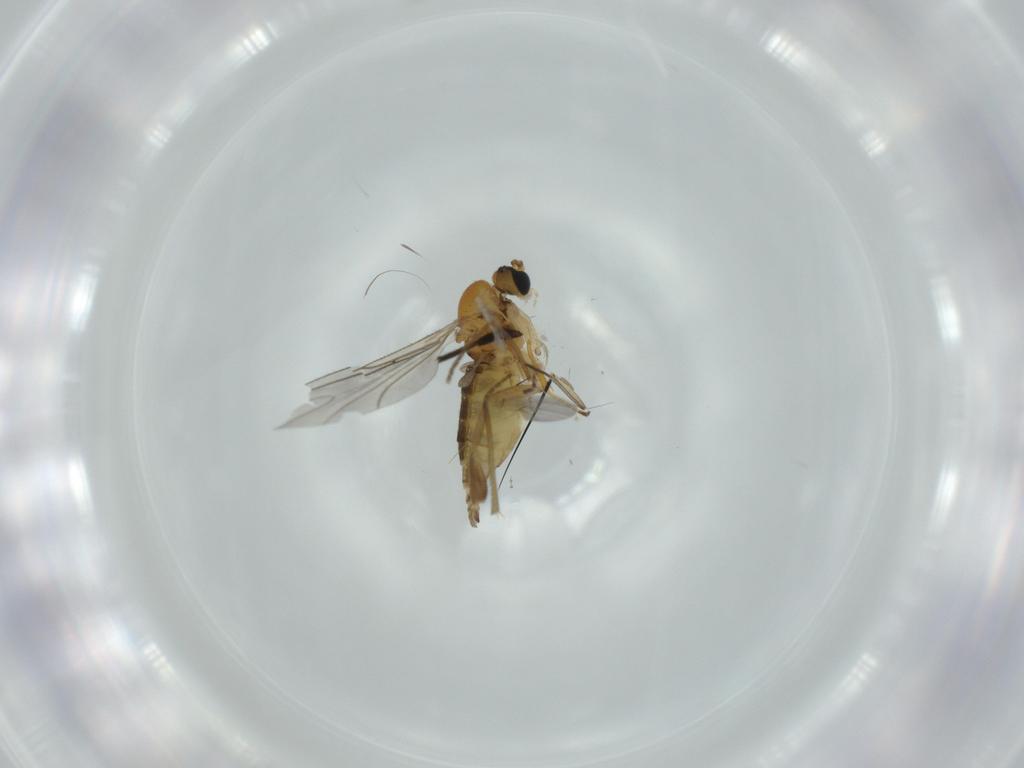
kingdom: Animalia
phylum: Arthropoda
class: Insecta
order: Diptera
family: Phoridae
